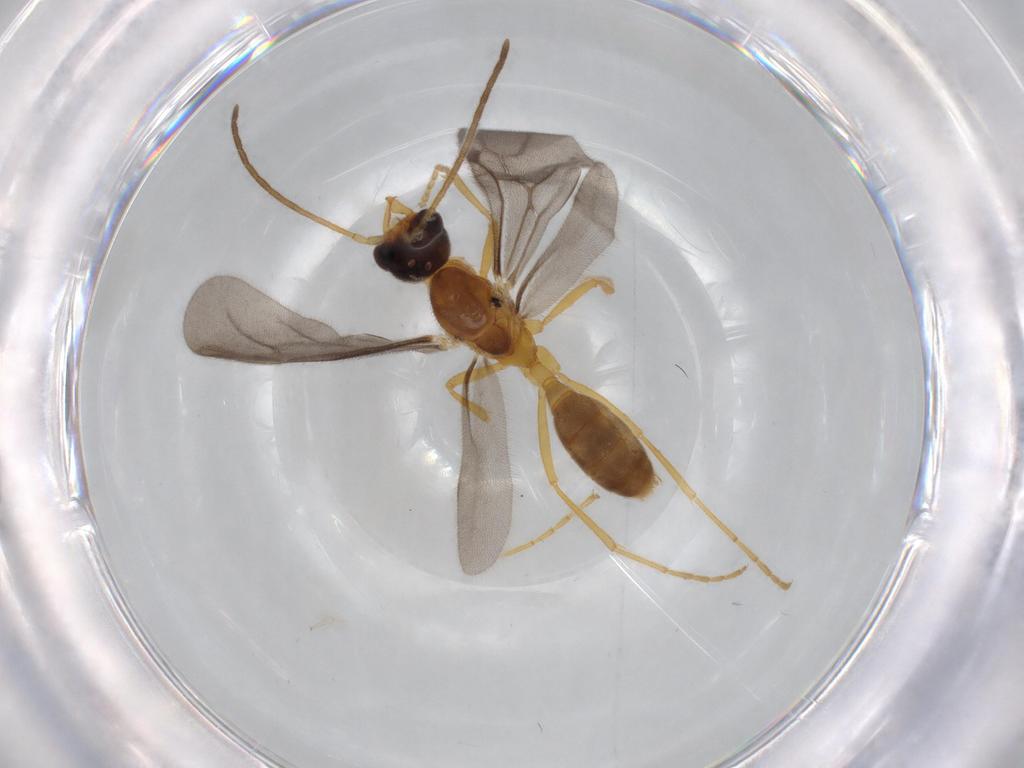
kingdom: Animalia
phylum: Arthropoda
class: Insecta
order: Hymenoptera
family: Formicidae
